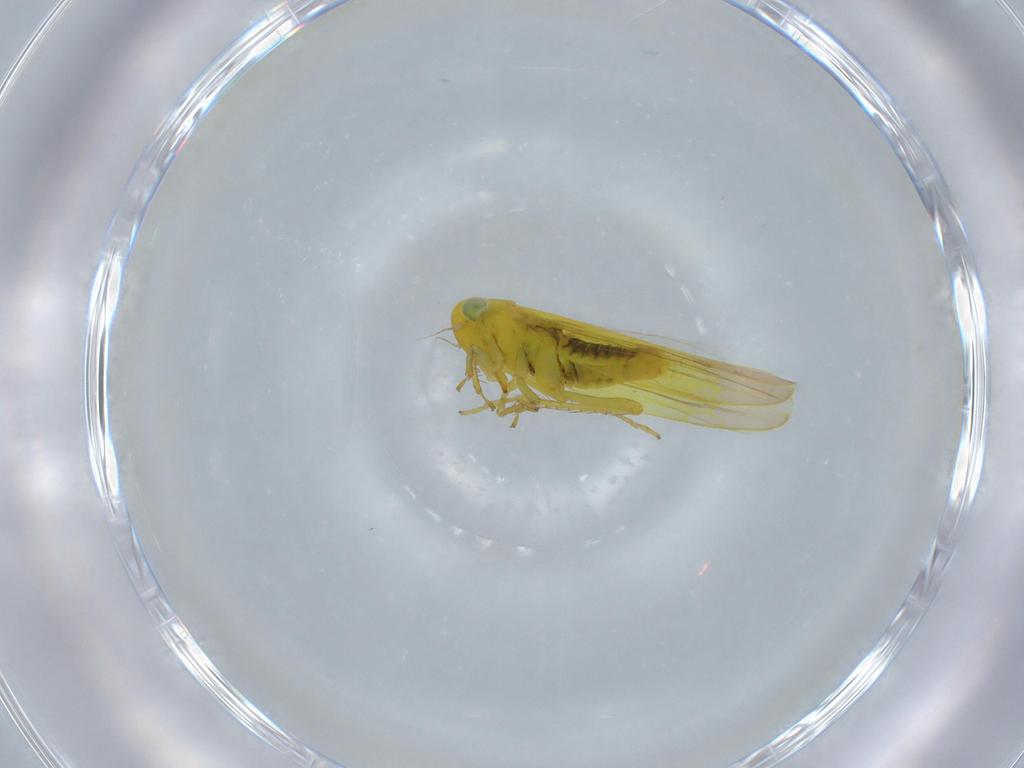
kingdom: Animalia
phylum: Arthropoda
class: Insecta
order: Hemiptera
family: Cicadellidae
